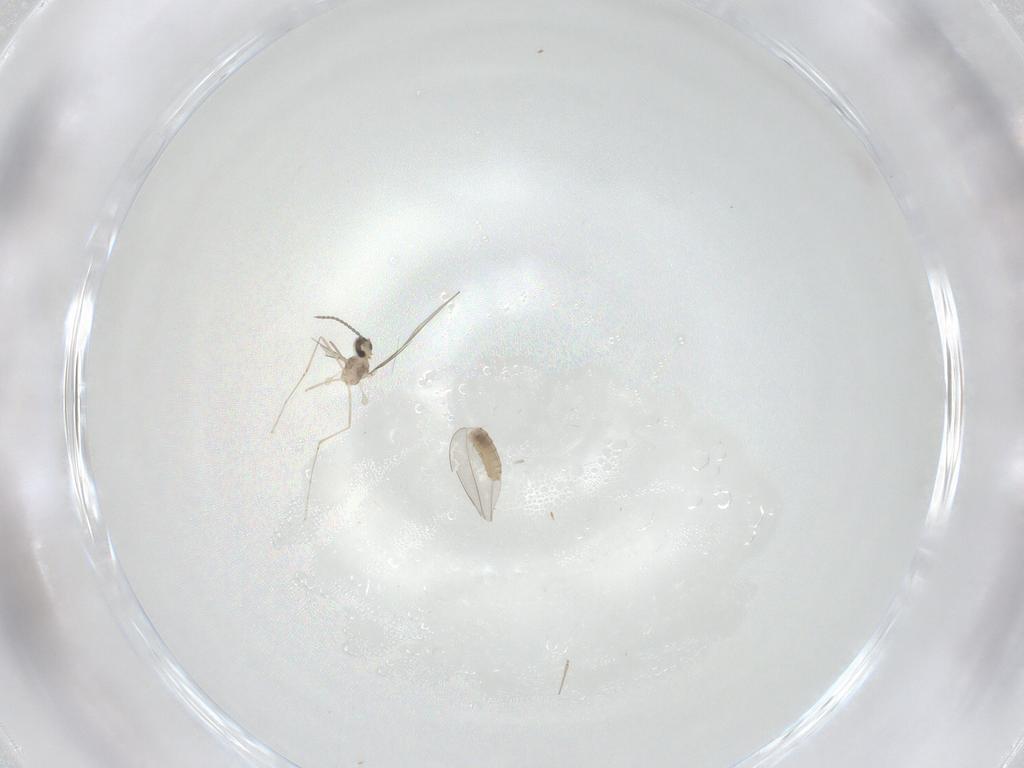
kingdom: Animalia
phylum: Arthropoda
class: Insecta
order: Diptera
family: Cecidomyiidae
